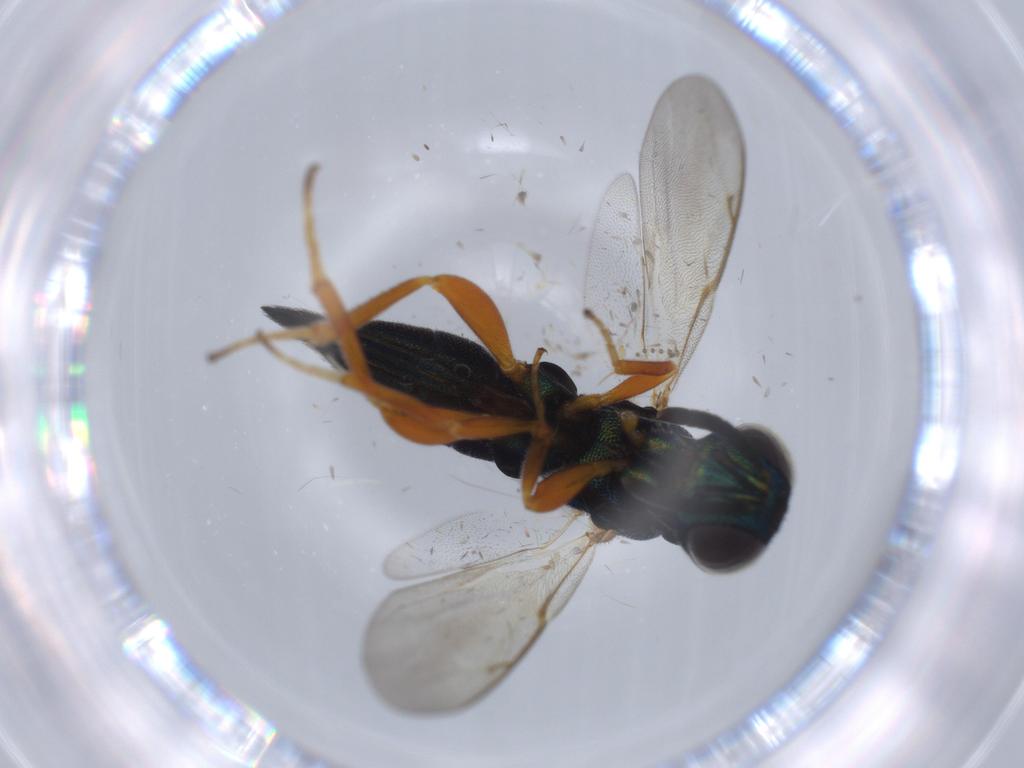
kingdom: Animalia
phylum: Arthropoda
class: Insecta
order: Hymenoptera
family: Lyciscidae
